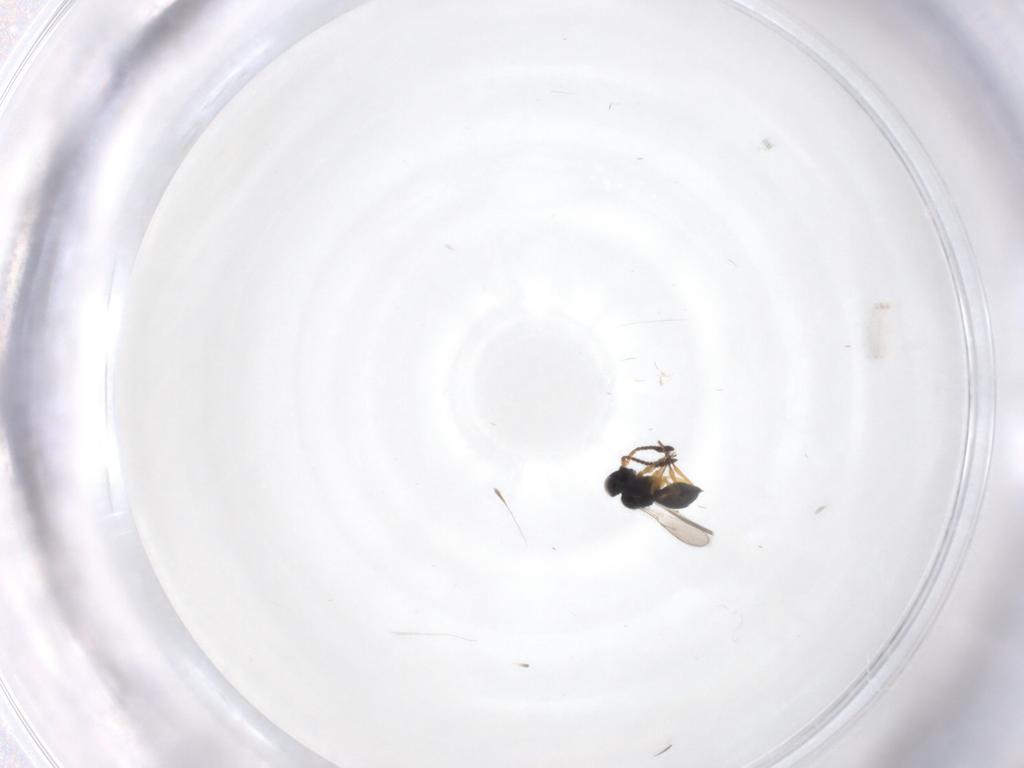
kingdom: Animalia
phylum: Arthropoda
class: Insecta
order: Hymenoptera
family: Scelionidae
